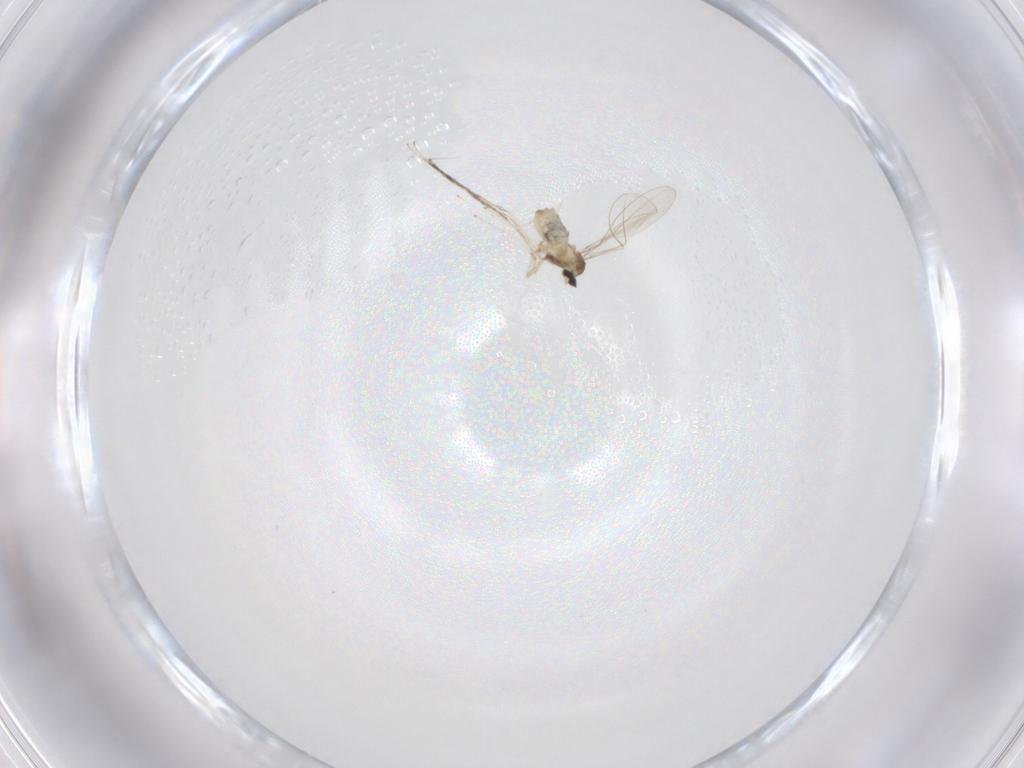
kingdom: Animalia
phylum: Arthropoda
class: Insecta
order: Diptera
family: Cecidomyiidae
